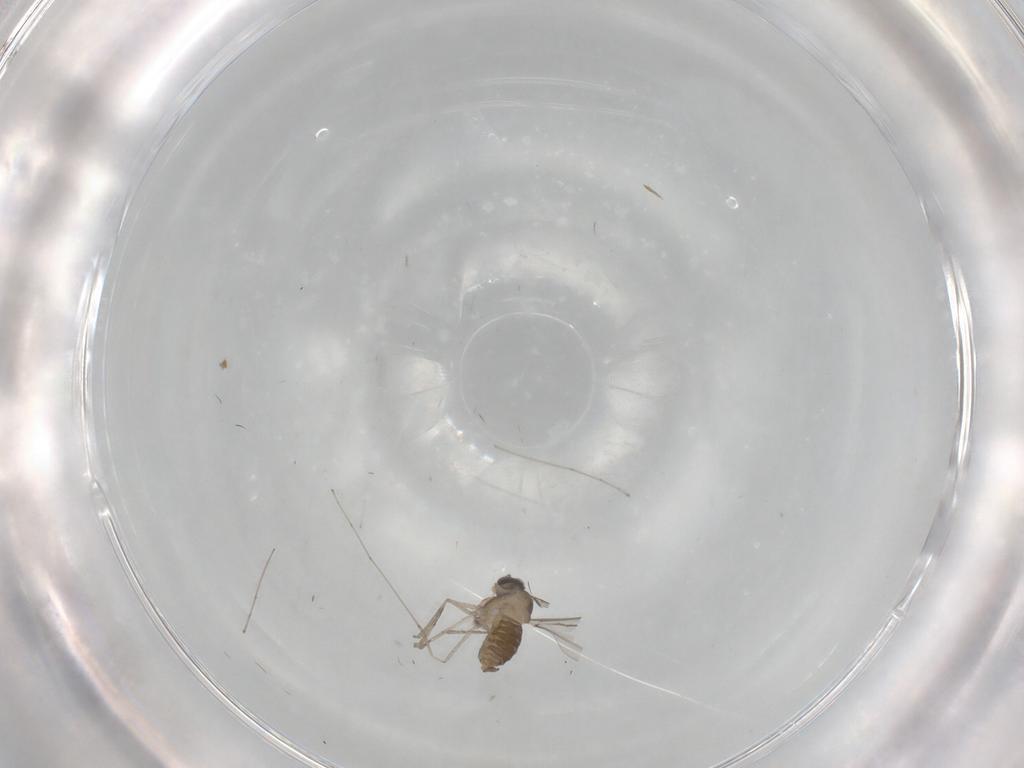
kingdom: Animalia
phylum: Arthropoda
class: Insecta
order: Diptera
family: Cecidomyiidae
